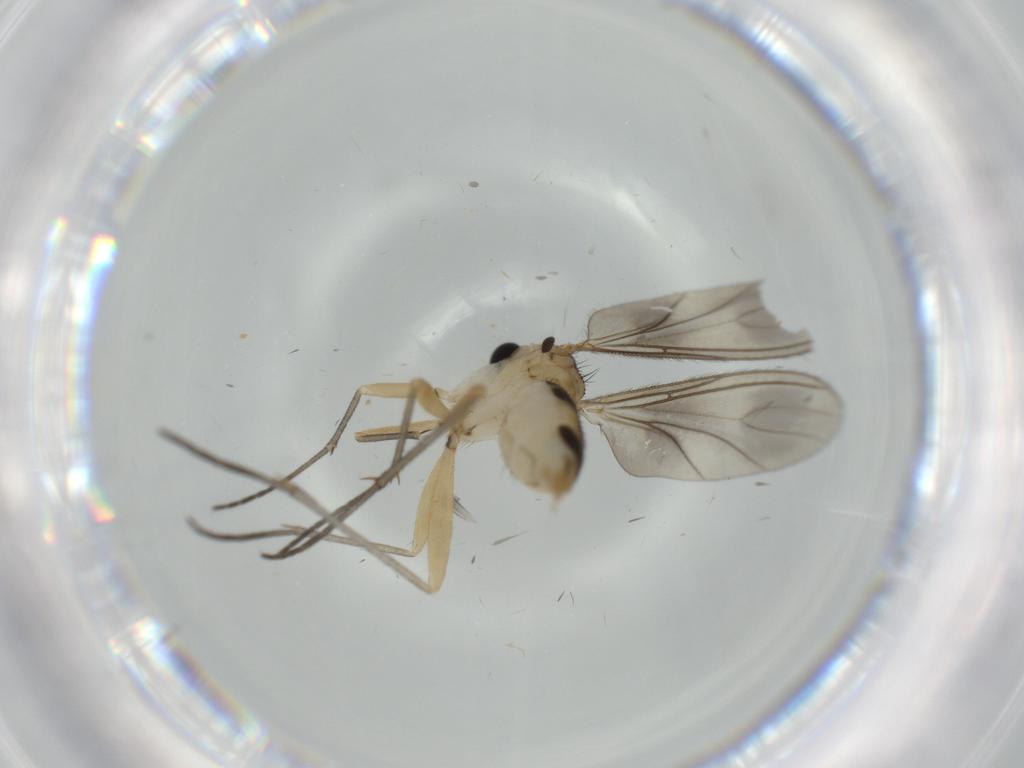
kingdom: Animalia
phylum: Arthropoda
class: Insecta
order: Diptera
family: Sciaridae
